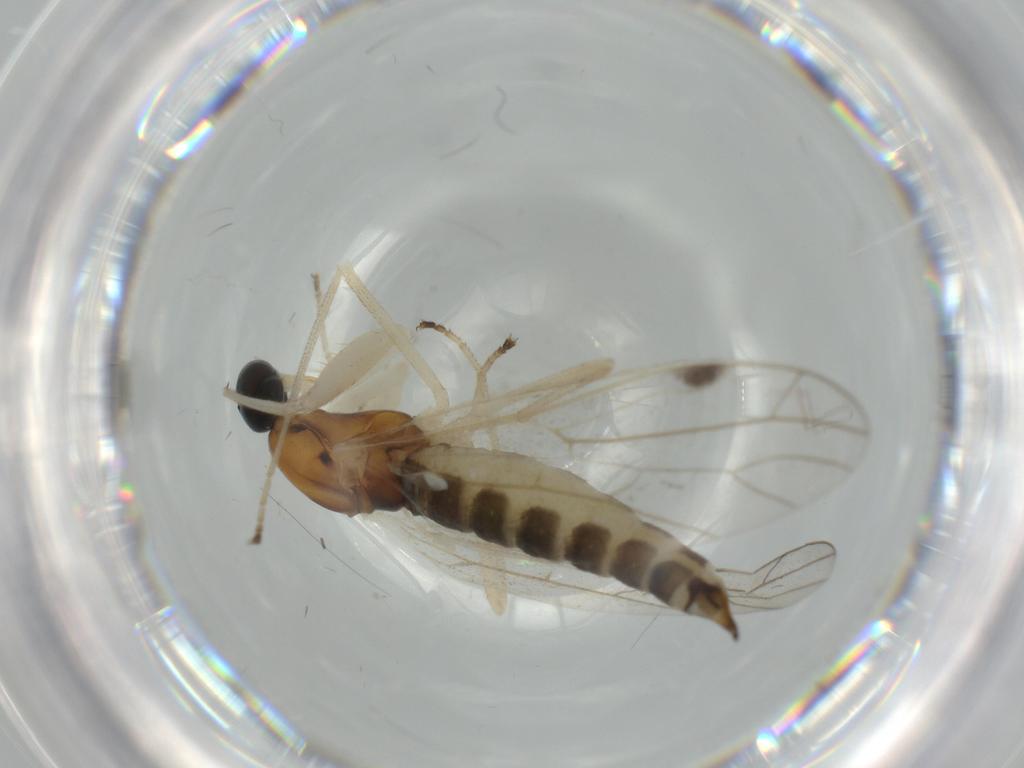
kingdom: Animalia
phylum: Arthropoda
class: Insecta
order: Diptera
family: Empididae
